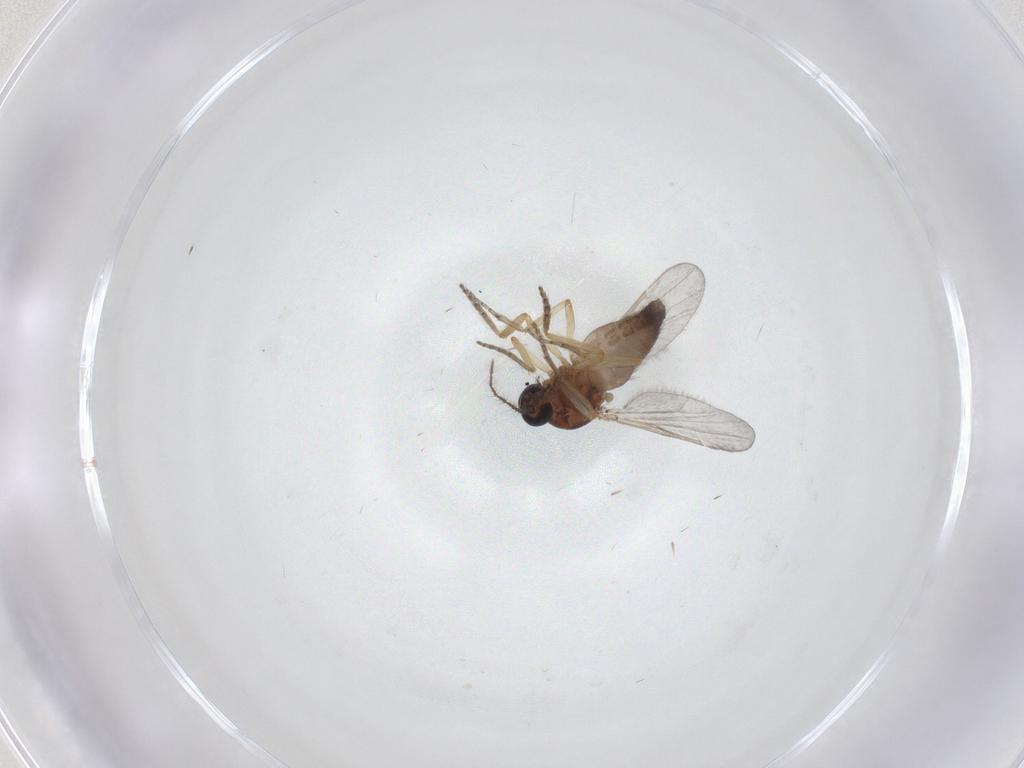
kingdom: Animalia
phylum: Arthropoda
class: Insecta
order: Diptera
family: Ceratopogonidae
